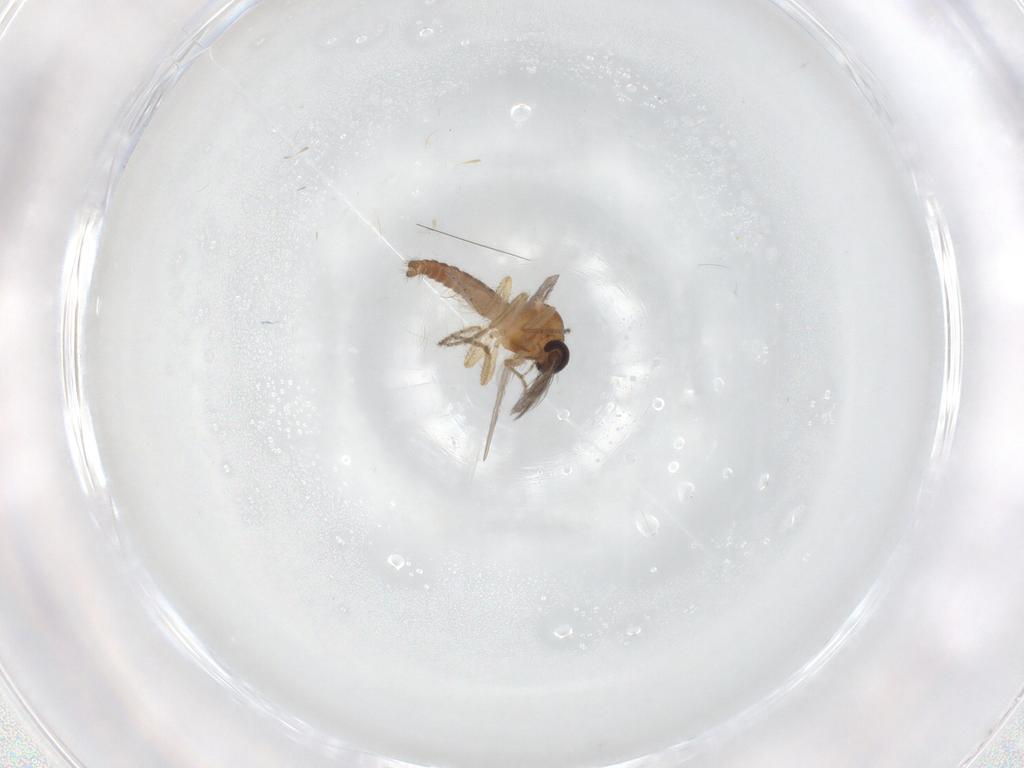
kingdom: Animalia
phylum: Arthropoda
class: Insecta
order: Diptera
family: Ceratopogonidae
